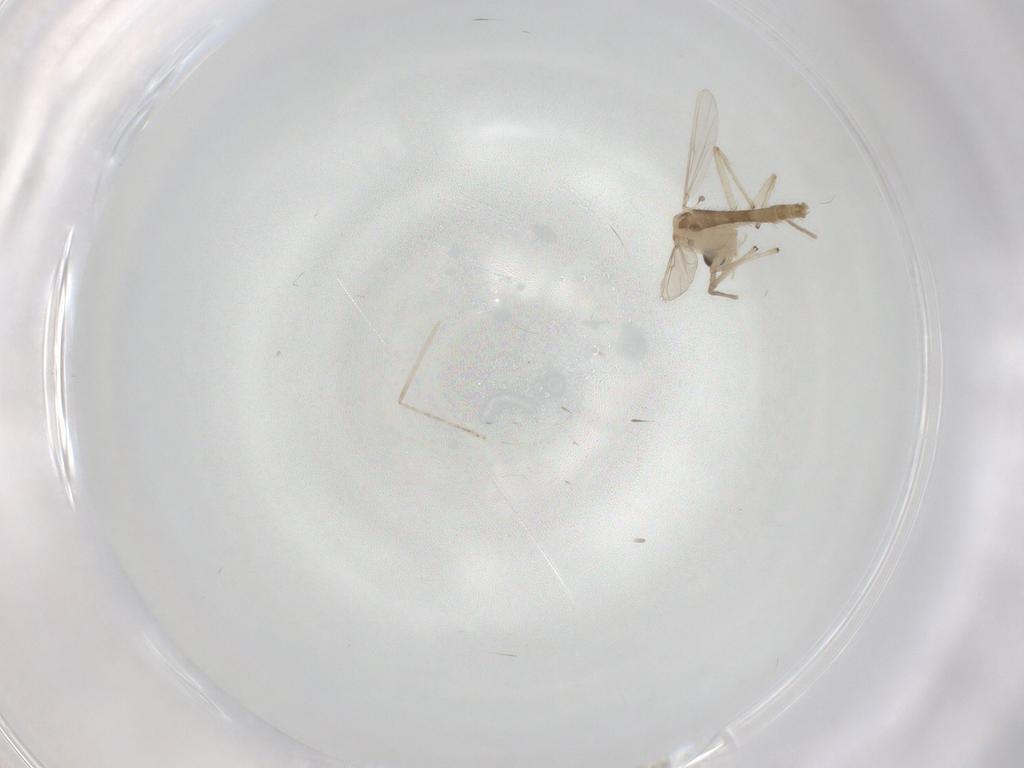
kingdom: Animalia
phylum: Arthropoda
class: Insecta
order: Diptera
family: Chironomidae
